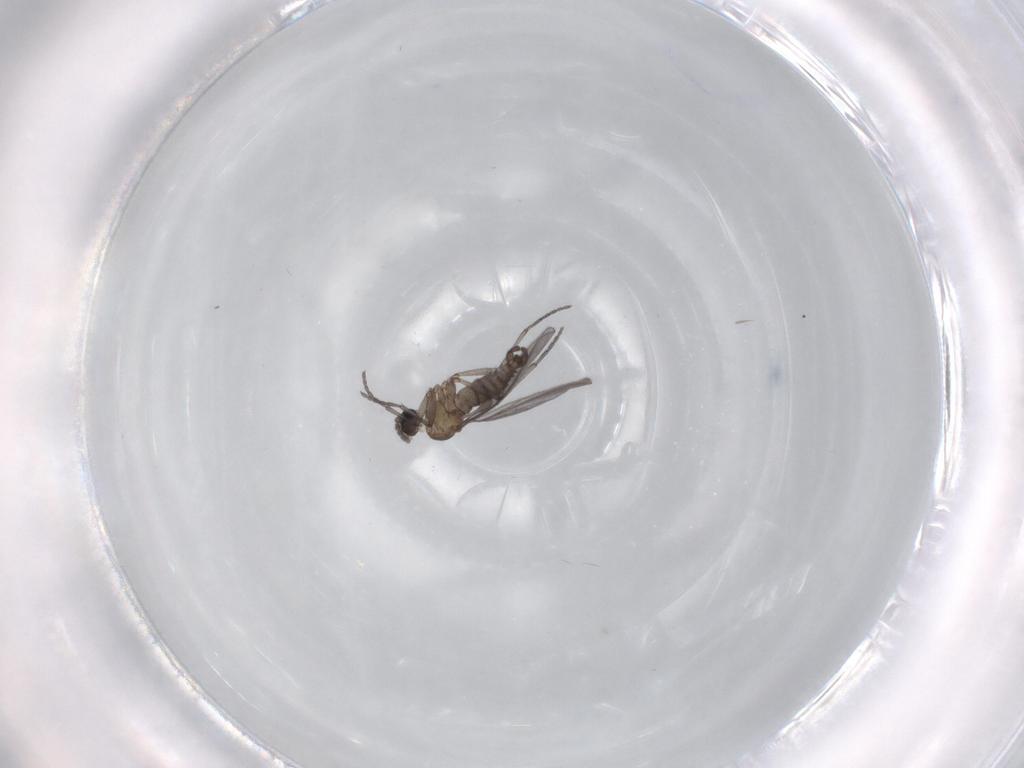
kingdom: Animalia
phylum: Arthropoda
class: Insecta
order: Diptera
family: Sciaridae
